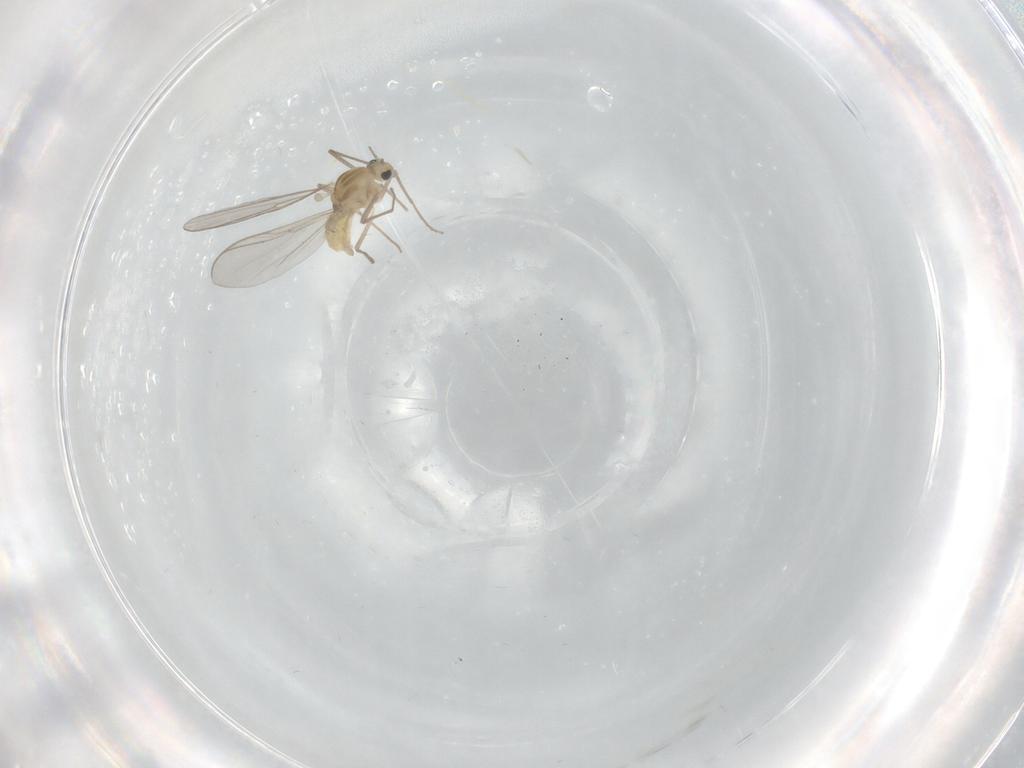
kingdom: Animalia
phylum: Arthropoda
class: Insecta
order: Diptera
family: Chironomidae
